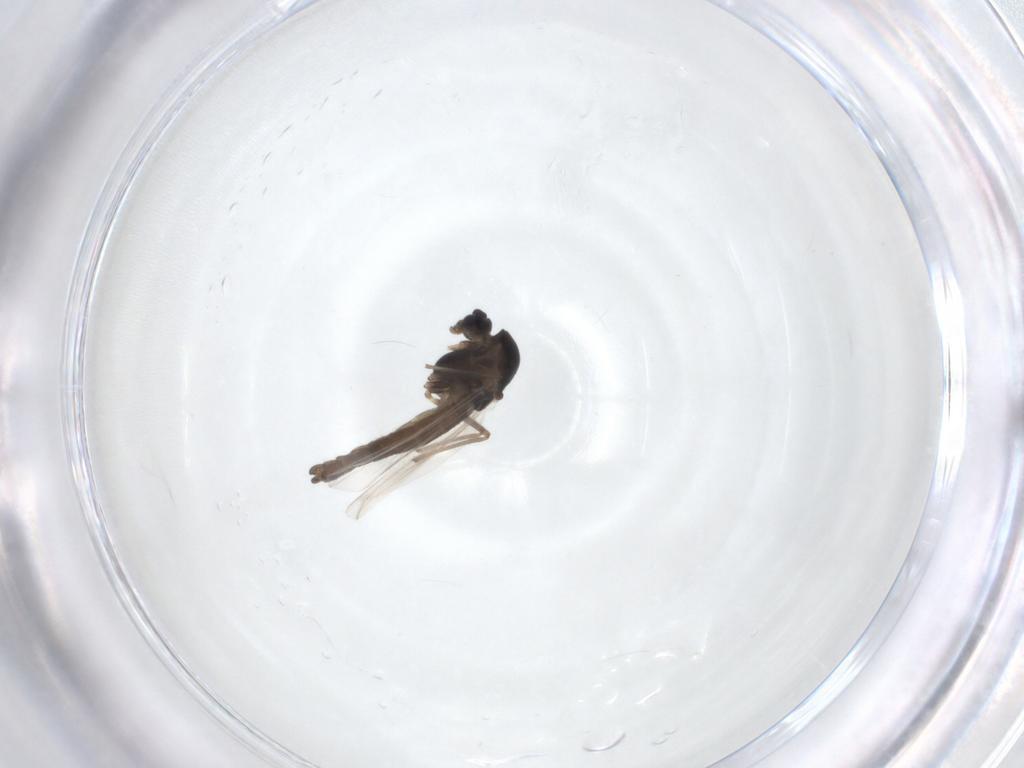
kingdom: Animalia
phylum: Arthropoda
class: Insecta
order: Diptera
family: Chironomidae
